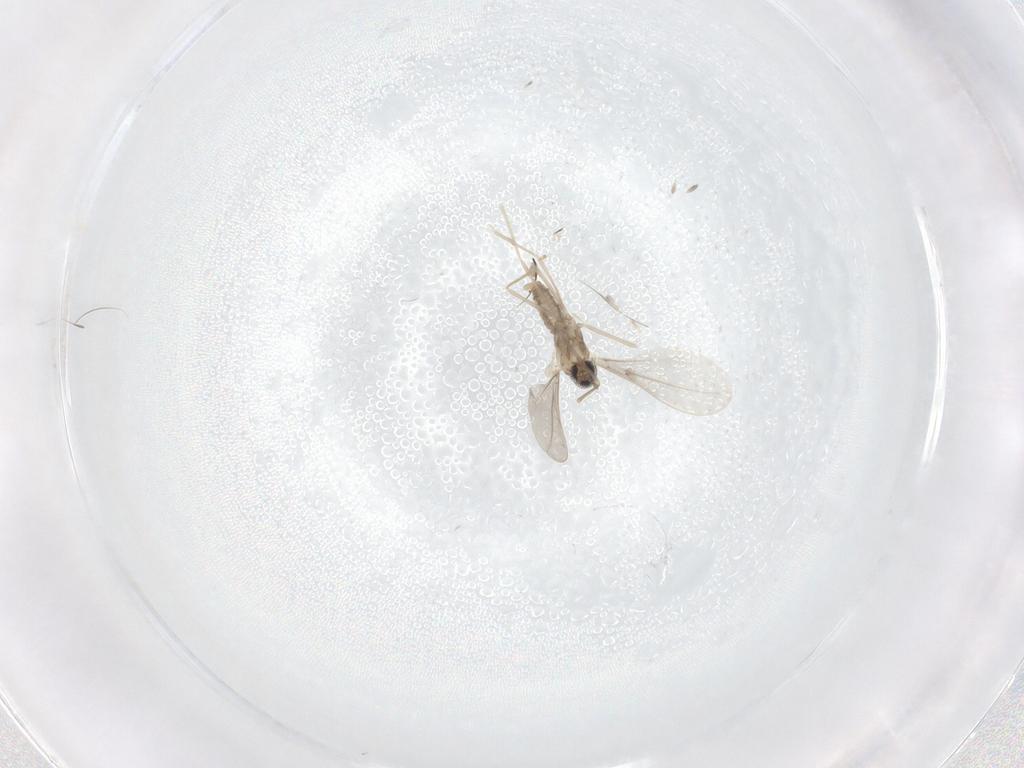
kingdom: Animalia
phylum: Arthropoda
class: Insecta
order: Diptera
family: Cecidomyiidae
